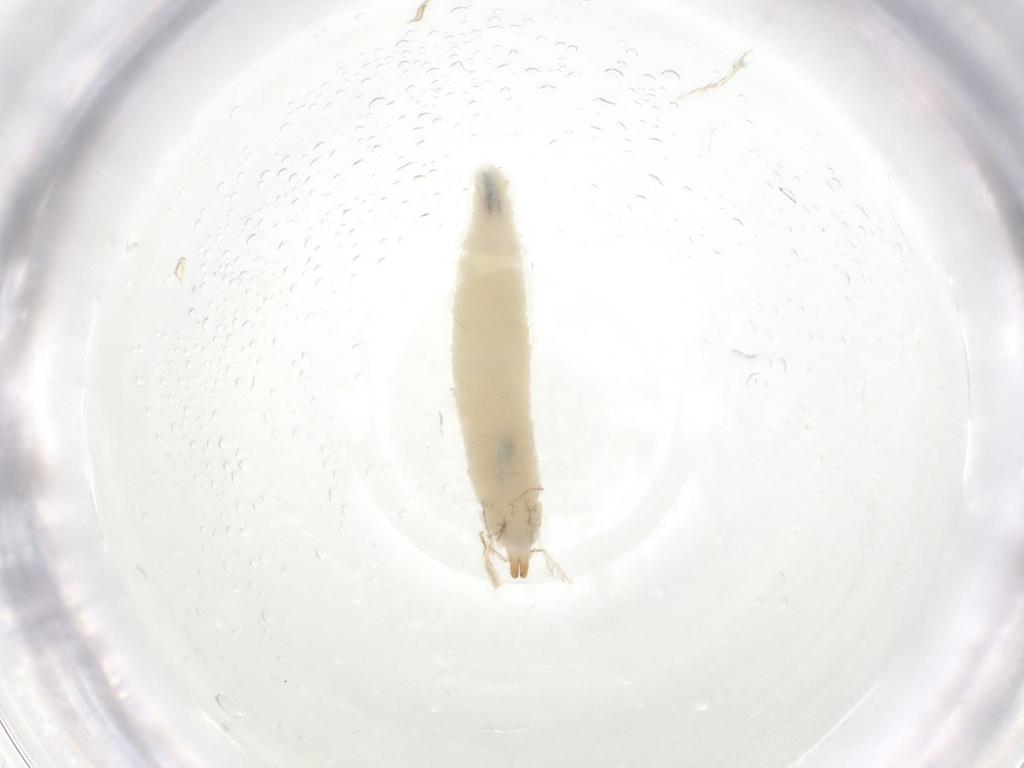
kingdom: Animalia
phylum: Arthropoda
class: Insecta
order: Diptera
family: Drosophilidae
